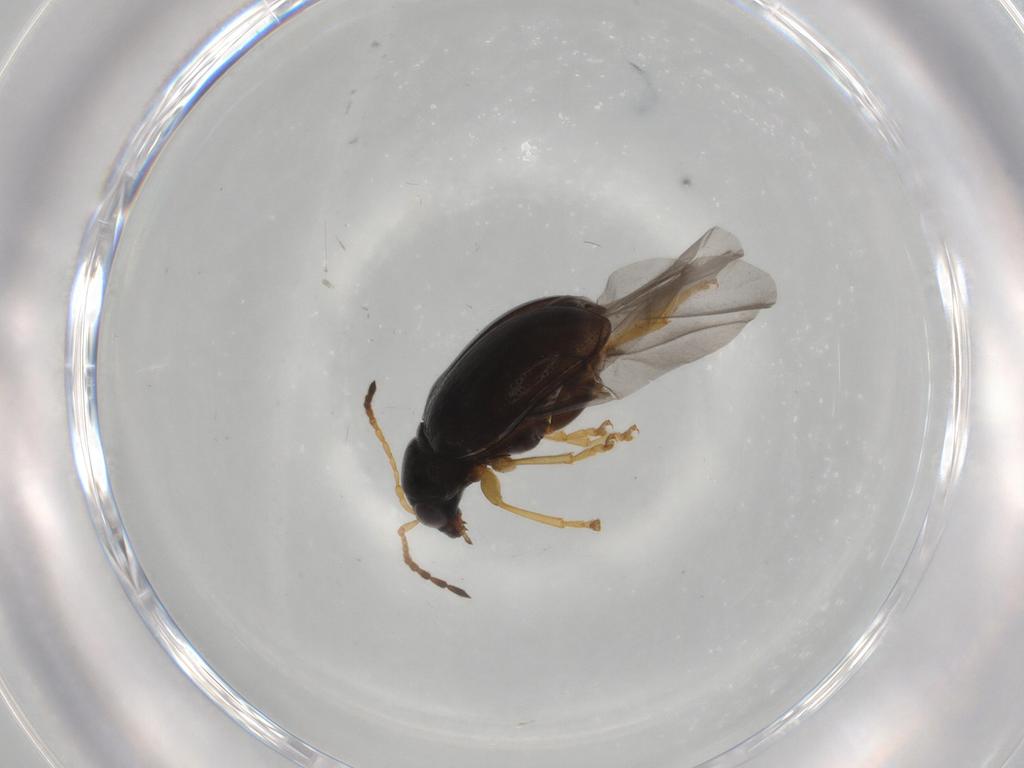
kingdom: Animalia
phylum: Arthropoda
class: Insecta
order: Coleoptera
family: Chrysomelidae
